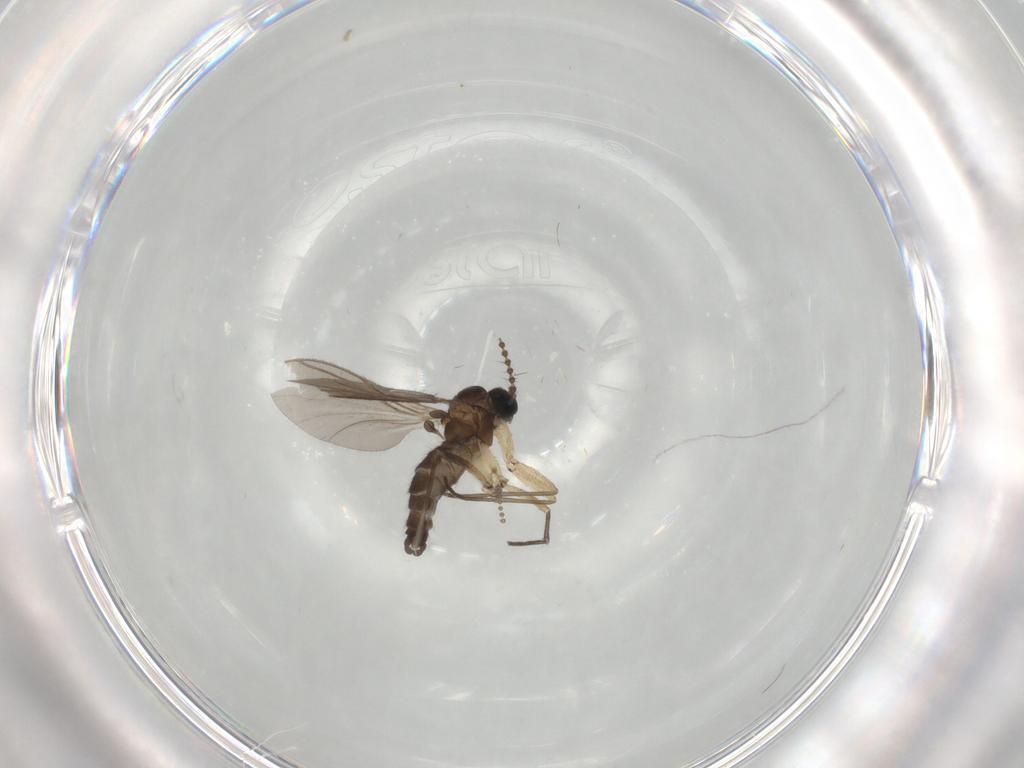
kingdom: Animalia
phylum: Arthropoda
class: Insecta
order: Diptera
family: Sciaridae
